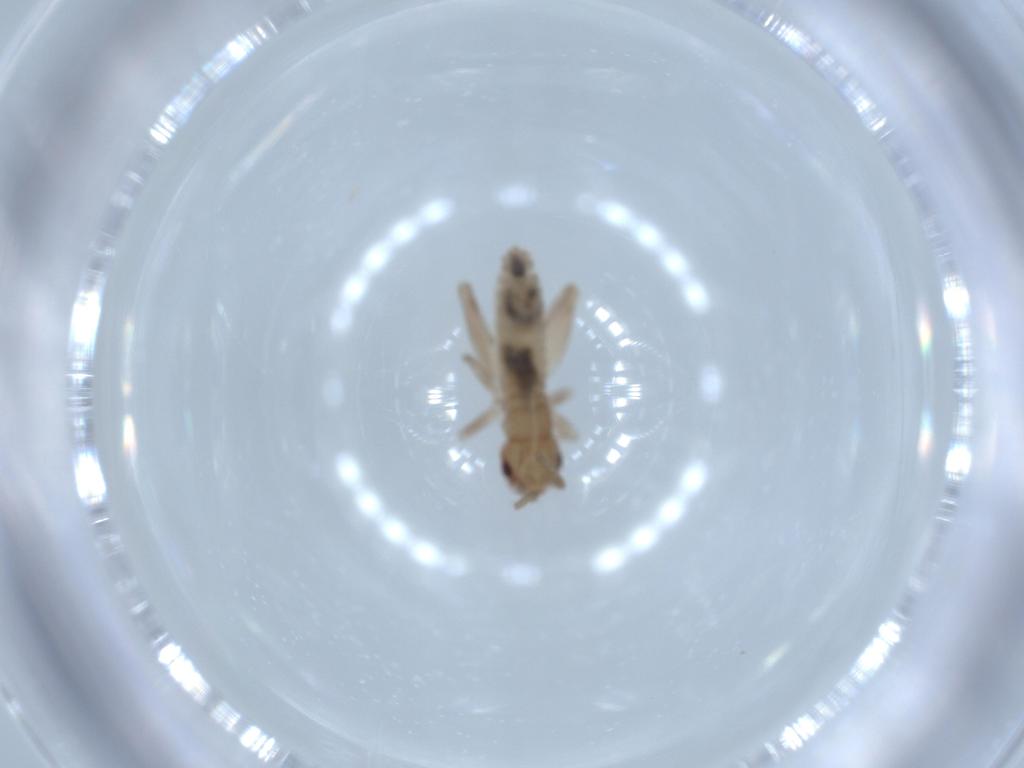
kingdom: Animalia
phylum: Arthropoda
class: Insecta
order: Orthoptera
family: Mogoplistidae
